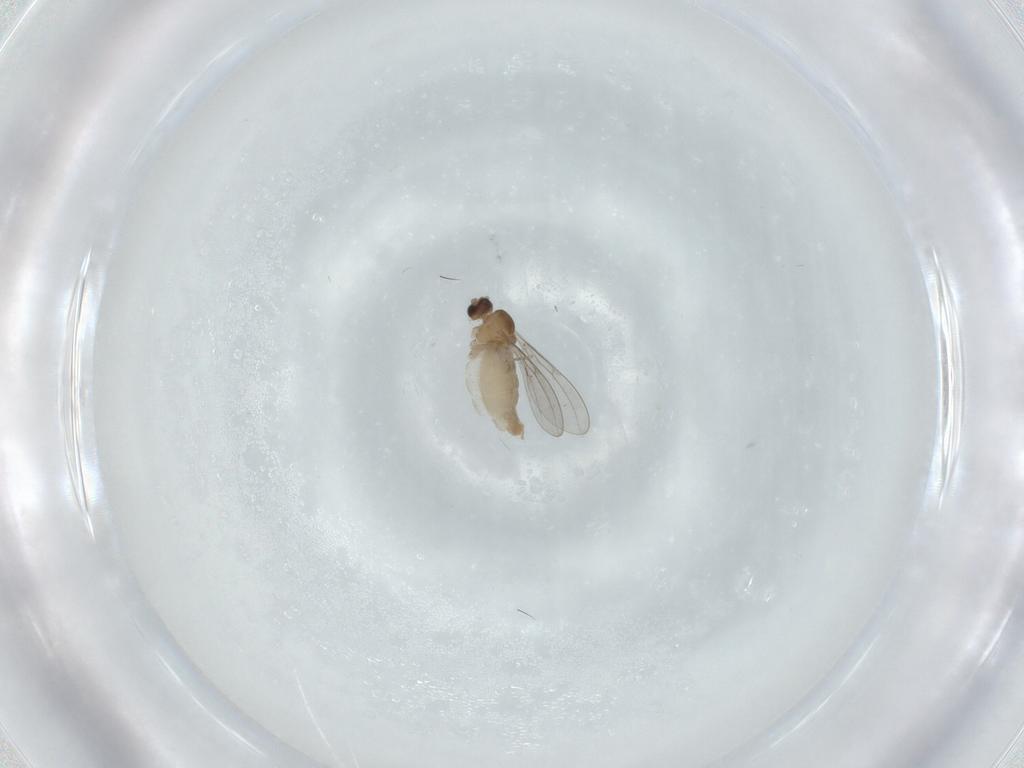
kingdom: Animalia
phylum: Arthropoda
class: Insecta
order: Diptera
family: Cecidomyiidae
